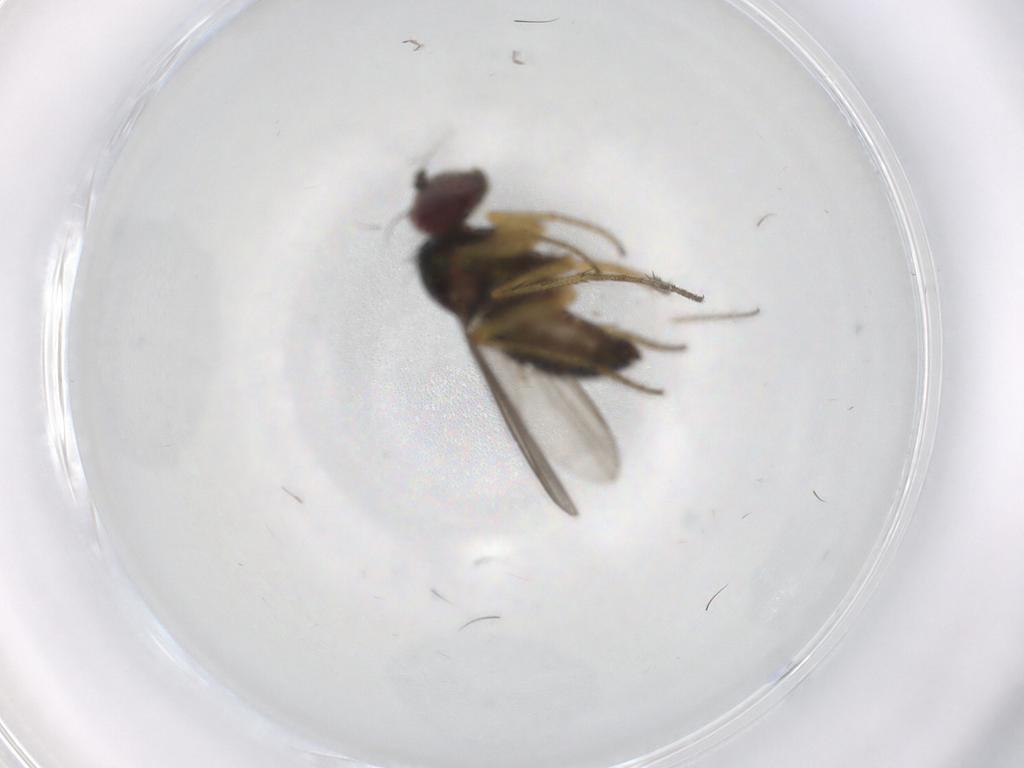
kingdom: Animalia
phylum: Arthropoda
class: Insecta
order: Diptera
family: Dolichopodidae
